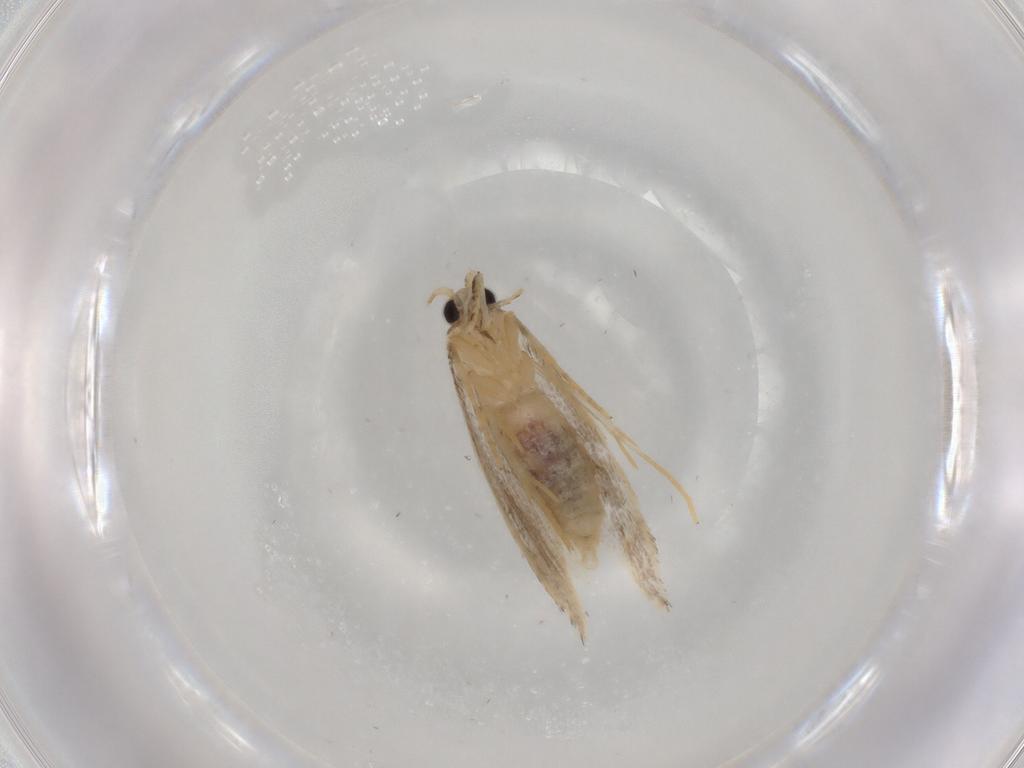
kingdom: Animalia
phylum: Arthropoda
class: Insecta
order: Lepidoptera
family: Nepticulidae
